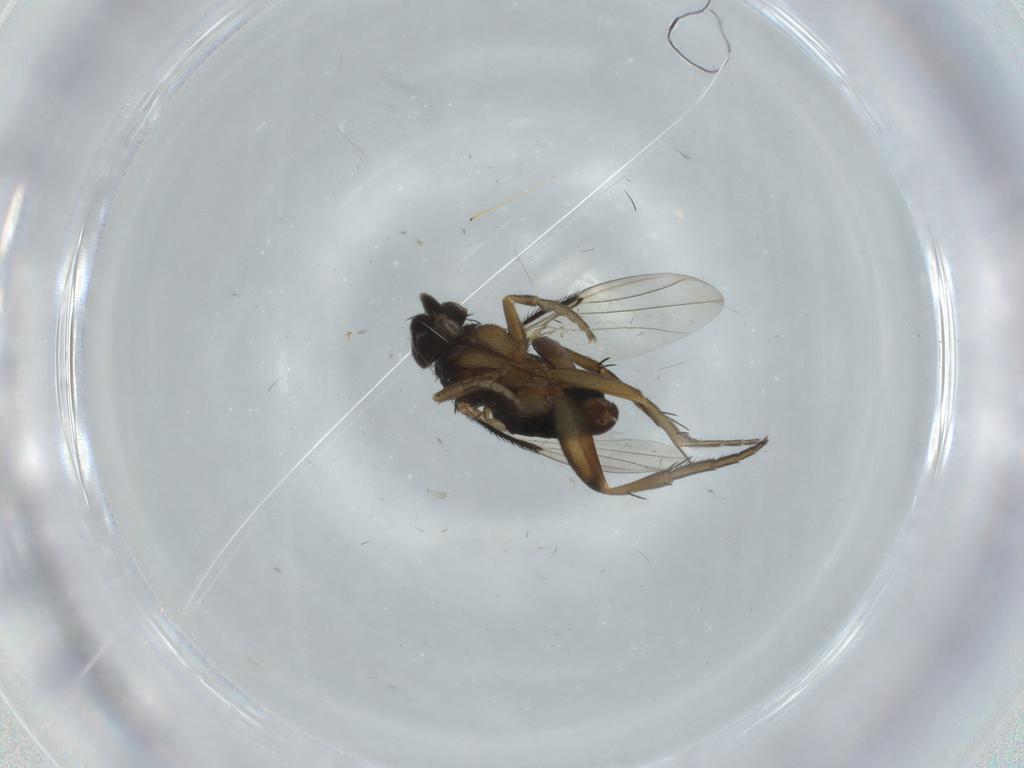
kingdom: Animalia
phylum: Arthropoda
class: Insecta
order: Diptera
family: Phoridae
